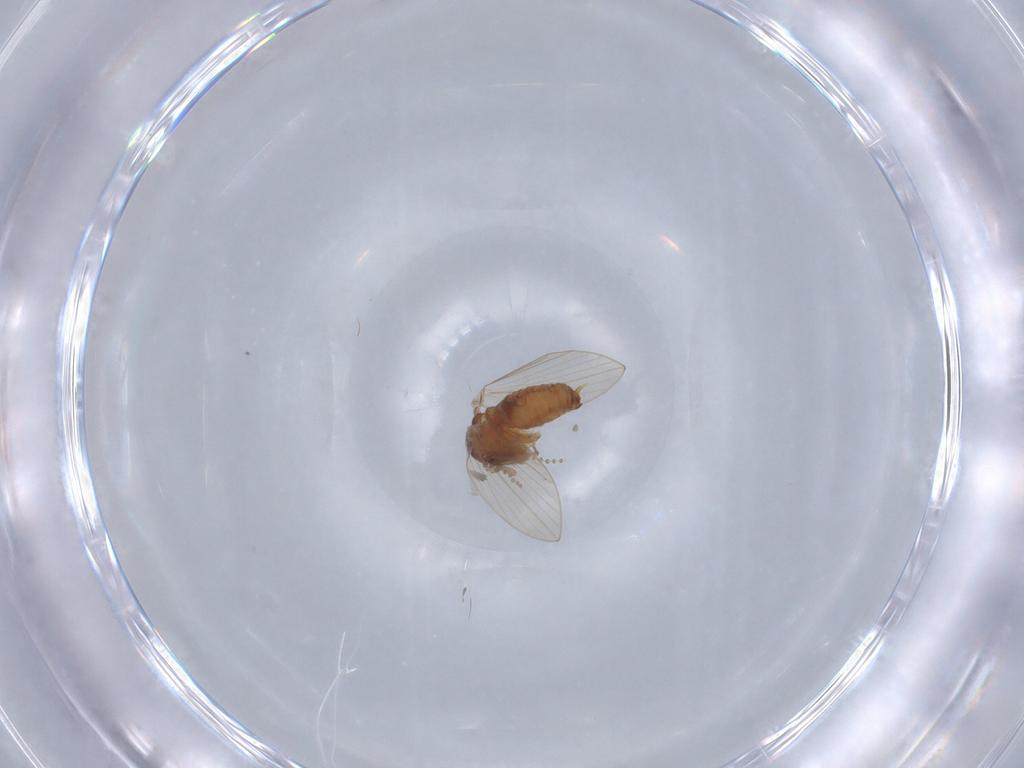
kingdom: Animalia
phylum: Arthropoda
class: Insecta
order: Diptera
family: Psychodidae
